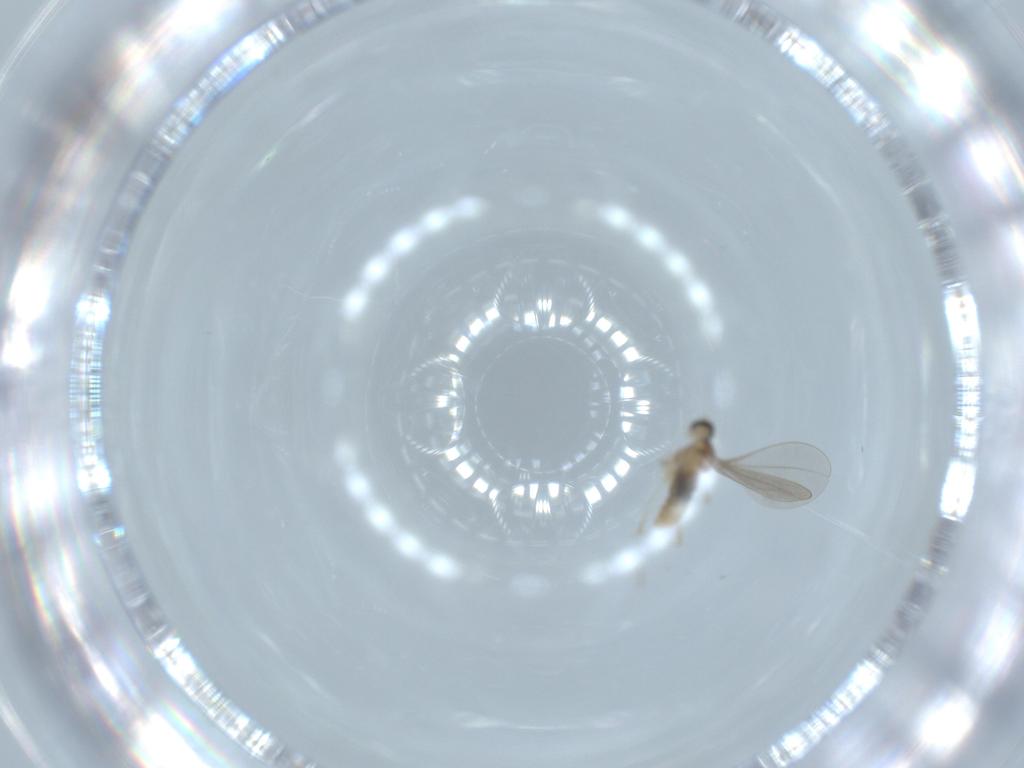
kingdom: Animalia
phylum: Arthropoda
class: Insecta
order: Diptera
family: Cecidomyiidae
